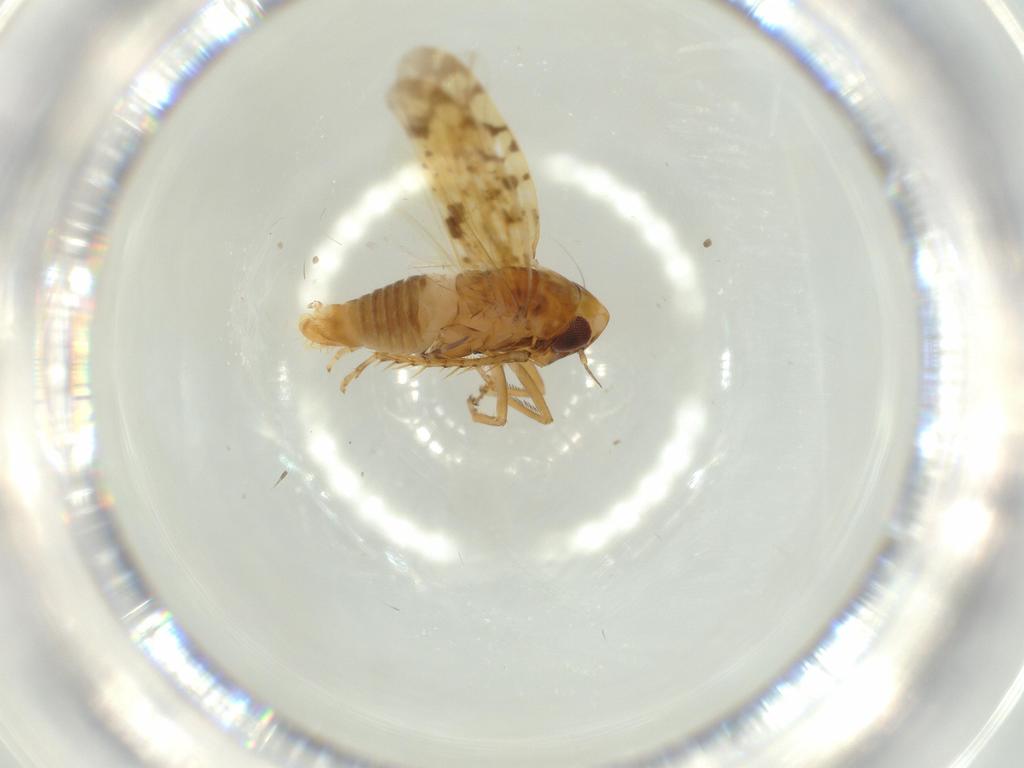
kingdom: Animalia
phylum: Arthropoda
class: Insecta
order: Hemiptera
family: Cicadellidae
